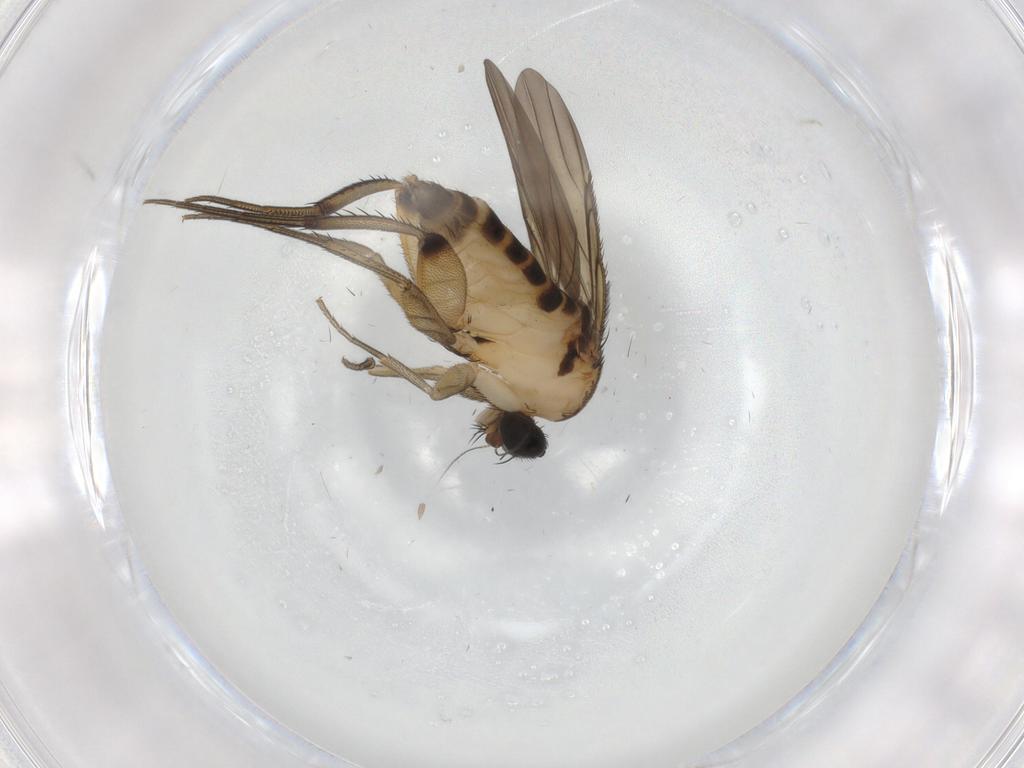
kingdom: Animalia
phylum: Arthropoda
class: Insecta
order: Diptera
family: Phoridae
